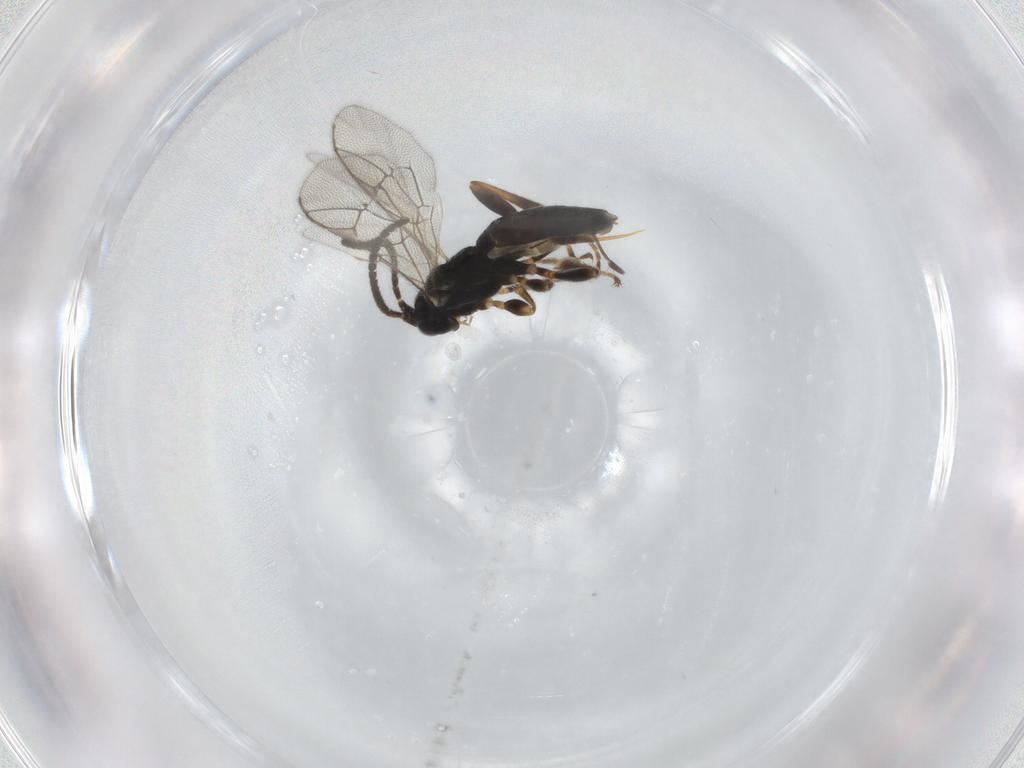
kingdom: Animalia
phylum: Arthropoda
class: Insecta
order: Hymenoptera
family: Ichneumonidae
